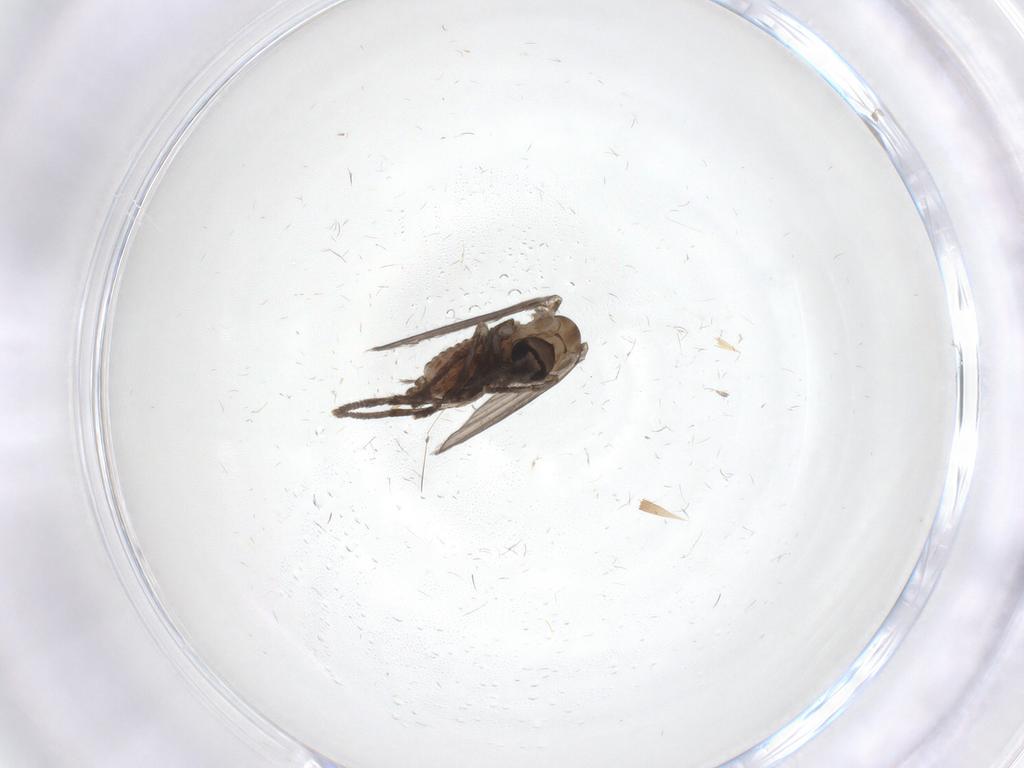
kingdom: Animalia
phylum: Arthropoda
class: Insecta
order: Diptera
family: Psychodidae
